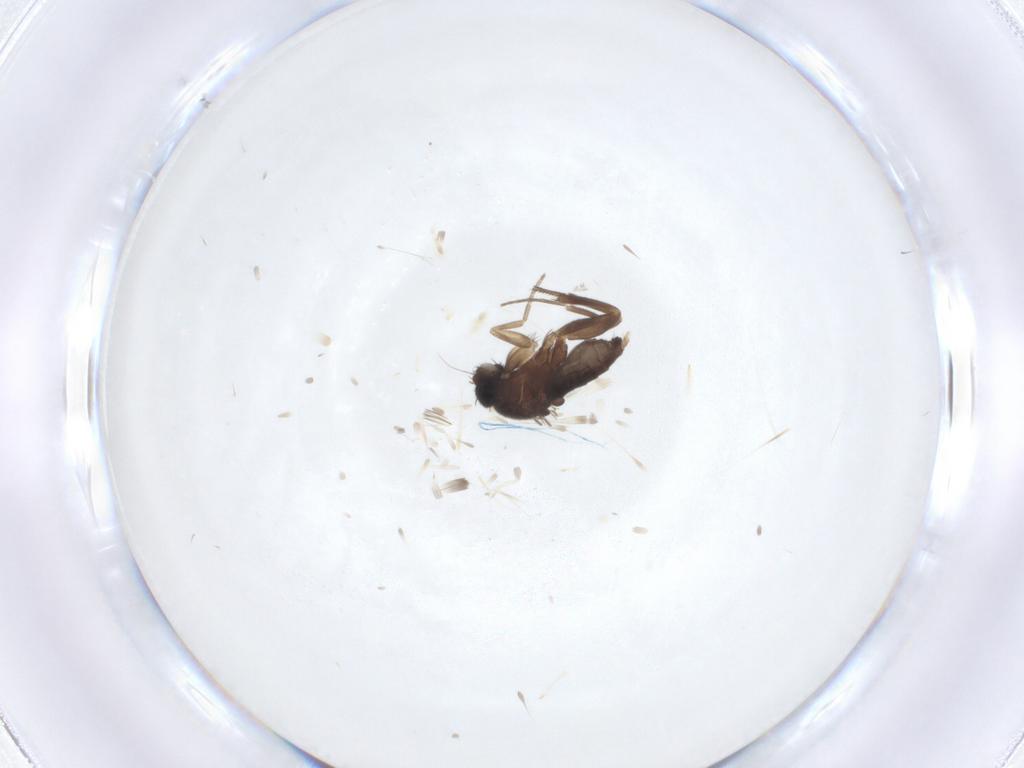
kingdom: Animalia
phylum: Arthropoda
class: Insecta
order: Diptera
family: Phoridae
